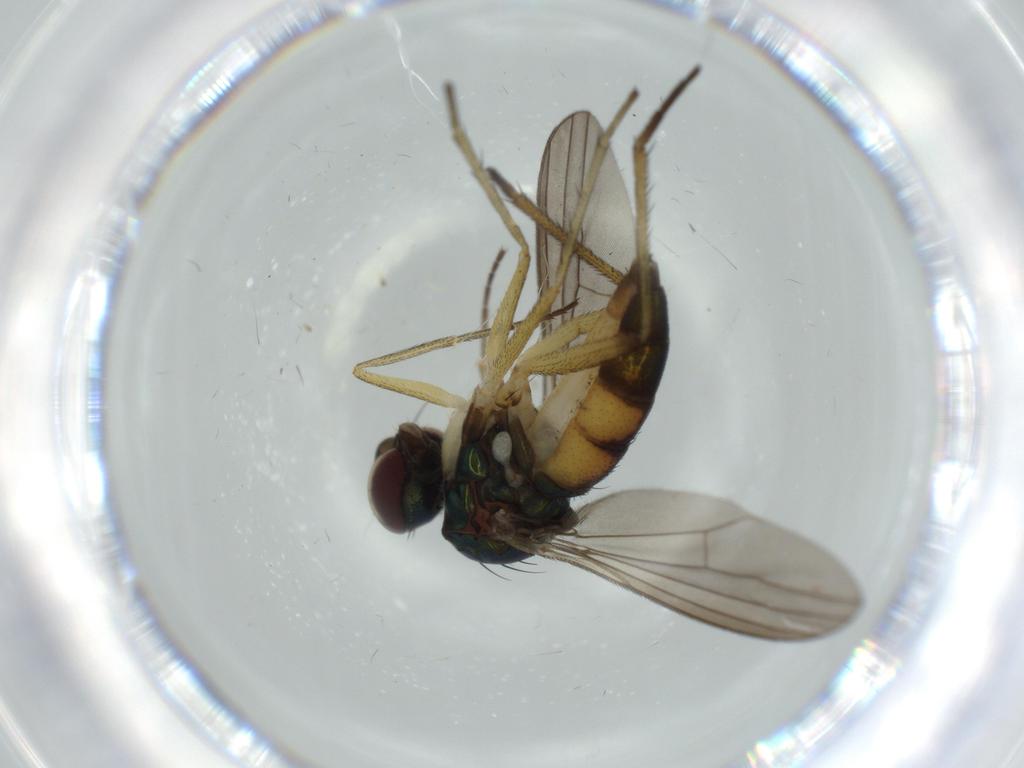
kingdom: Animalia
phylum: Arthropoda
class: Insecta
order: Diptera
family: Dolichopodidae
